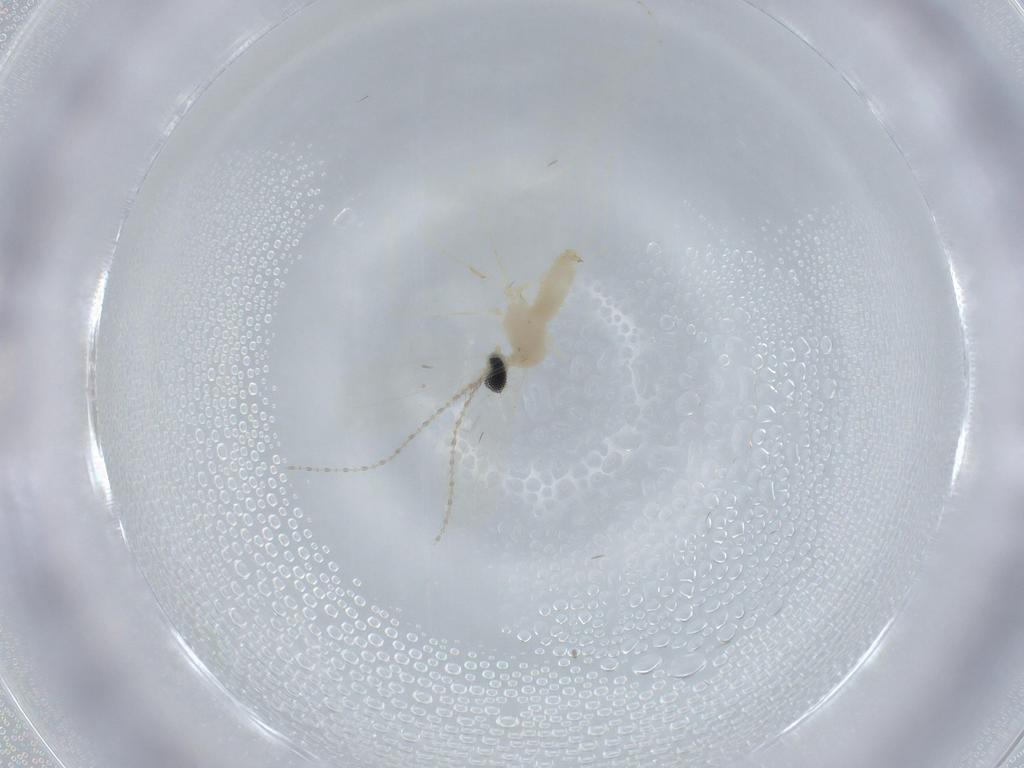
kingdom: Animalia
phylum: Arthropoda
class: Insecta
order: Diptera
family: Cecidomyiidae
